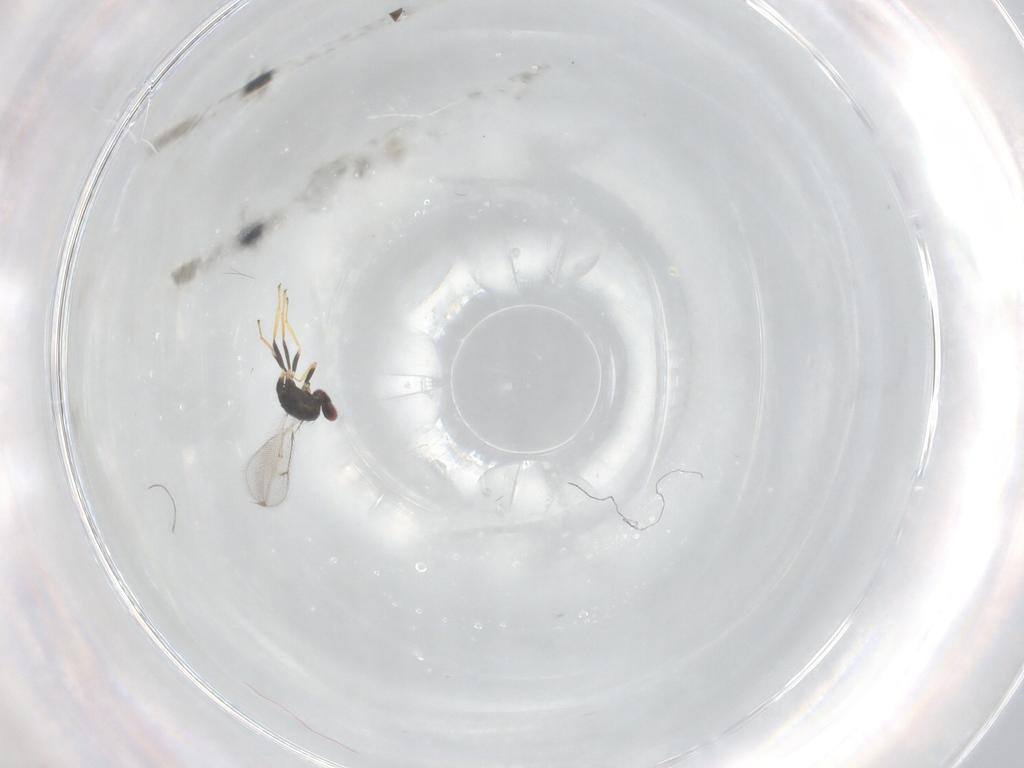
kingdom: Animalia
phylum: Arthropoda
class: Insecta
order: Hymenoptera
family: Eulophidae
